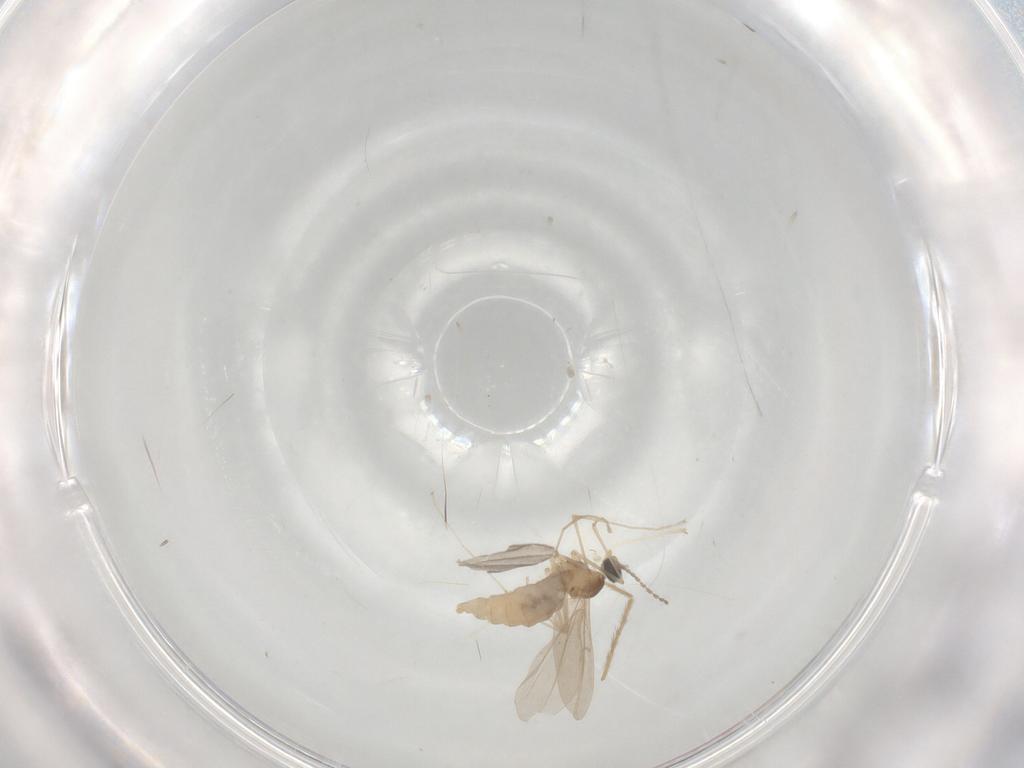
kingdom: Animalia
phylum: Arthropoda
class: Insecta
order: Diptera
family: Cecidomyiidae
